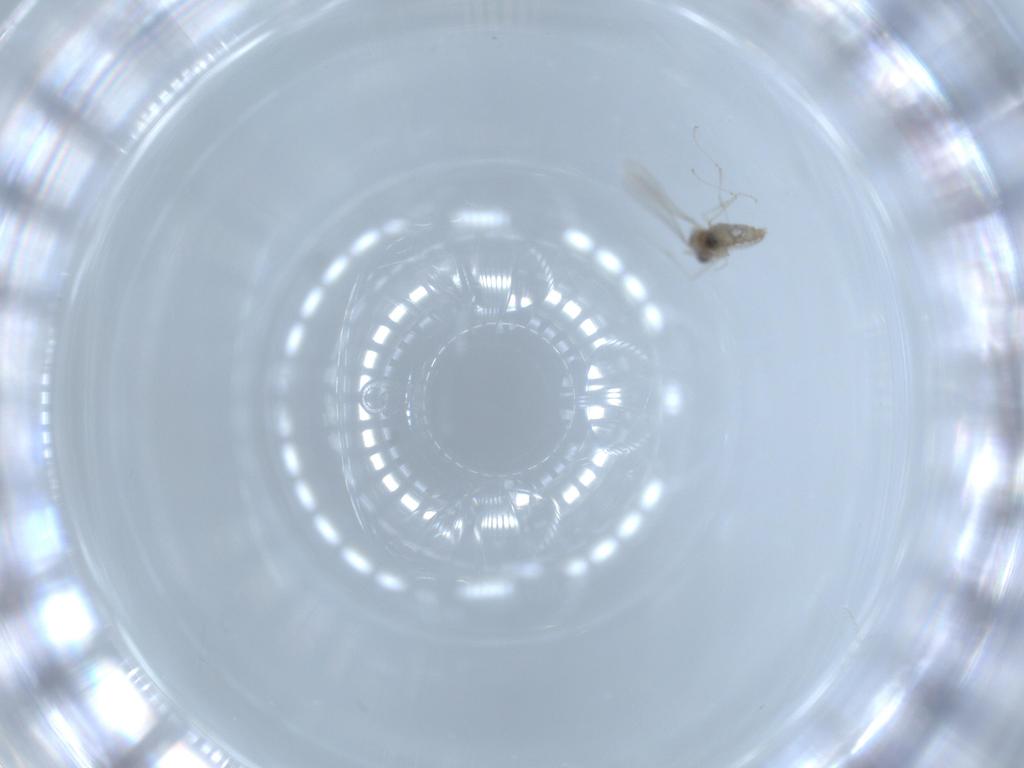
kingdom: Animalia
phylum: Arthropoda
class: Insecta
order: Diptera
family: Cecidomyiidae
